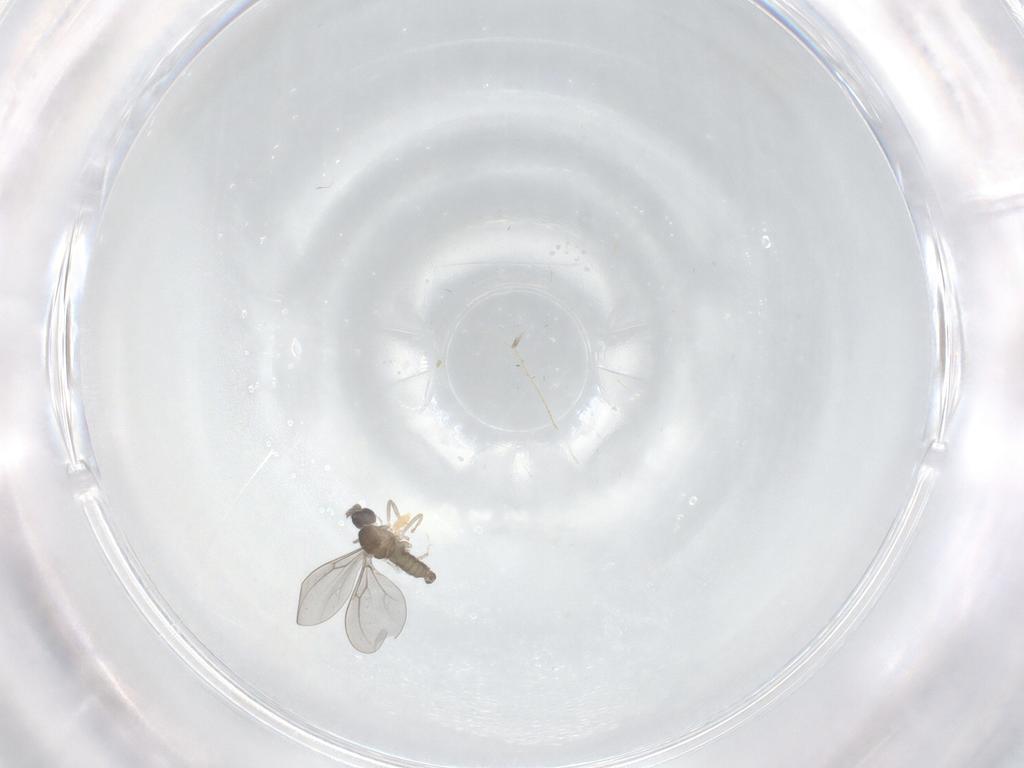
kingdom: Animalia
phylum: Arthropoda
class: Insecta
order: Diptera
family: Cecidomyiidae
